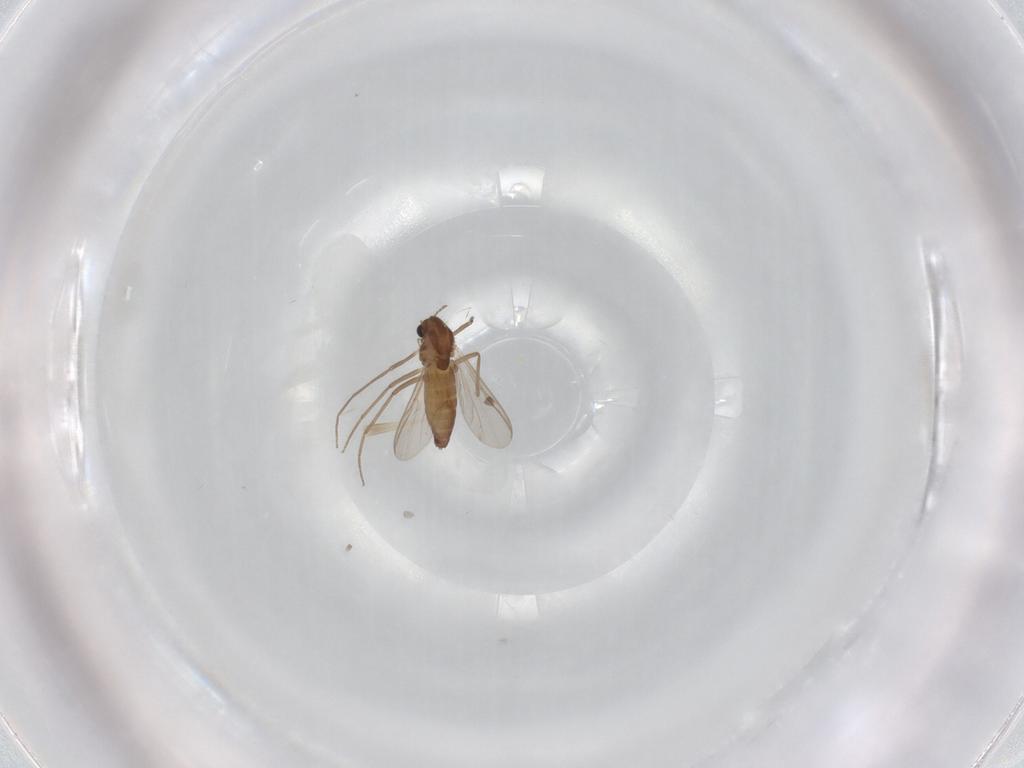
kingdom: Animalia
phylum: Arthropoda
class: Insecta
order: Diptera
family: Chironomidae
